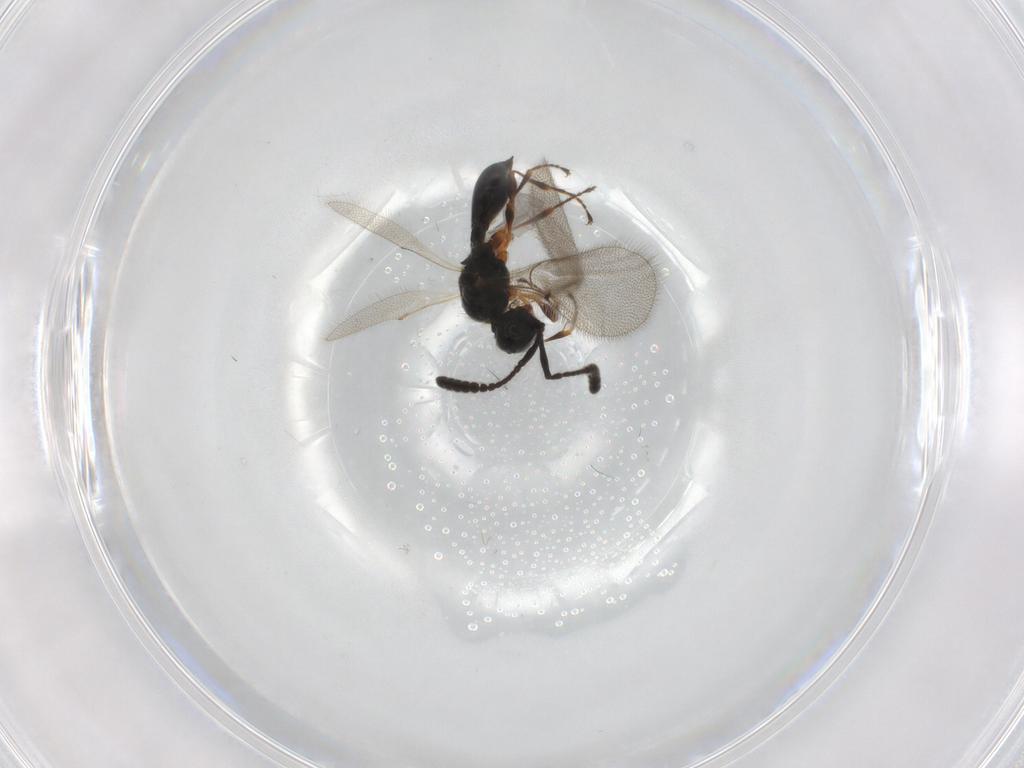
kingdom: Animalia
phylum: Arthropoda
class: Insecta
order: Hymenoptera
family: Diapriidae
